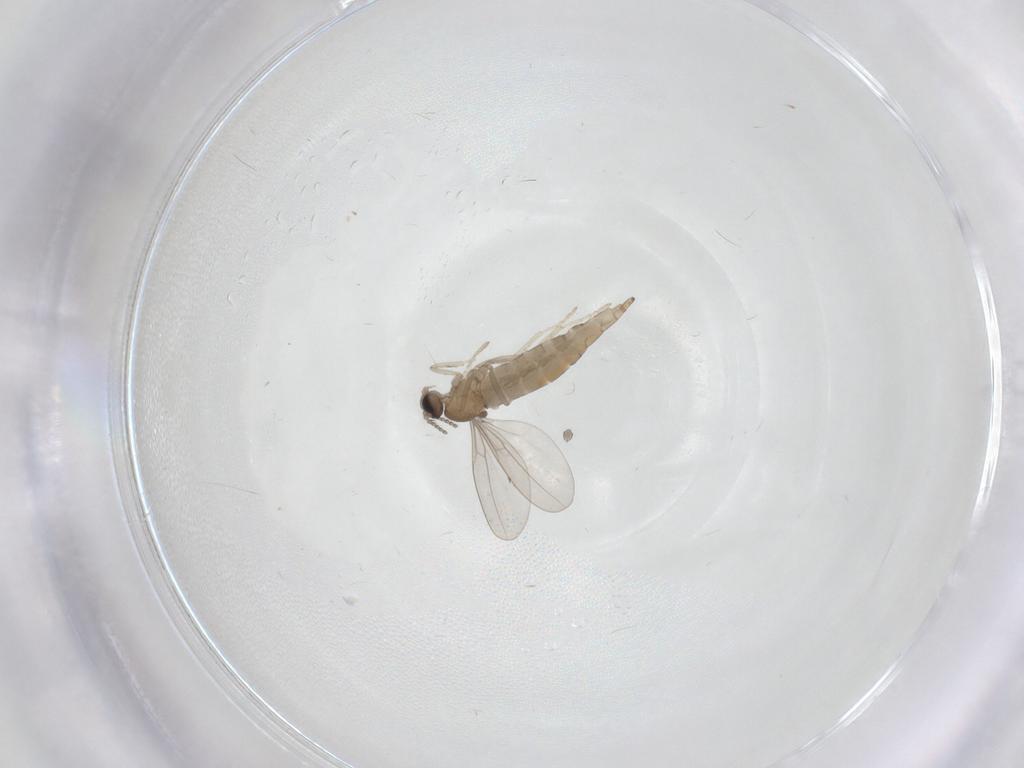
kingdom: Animalia
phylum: Arthropoda
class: Insecta
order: Diptera
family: Cecidomyiidae
